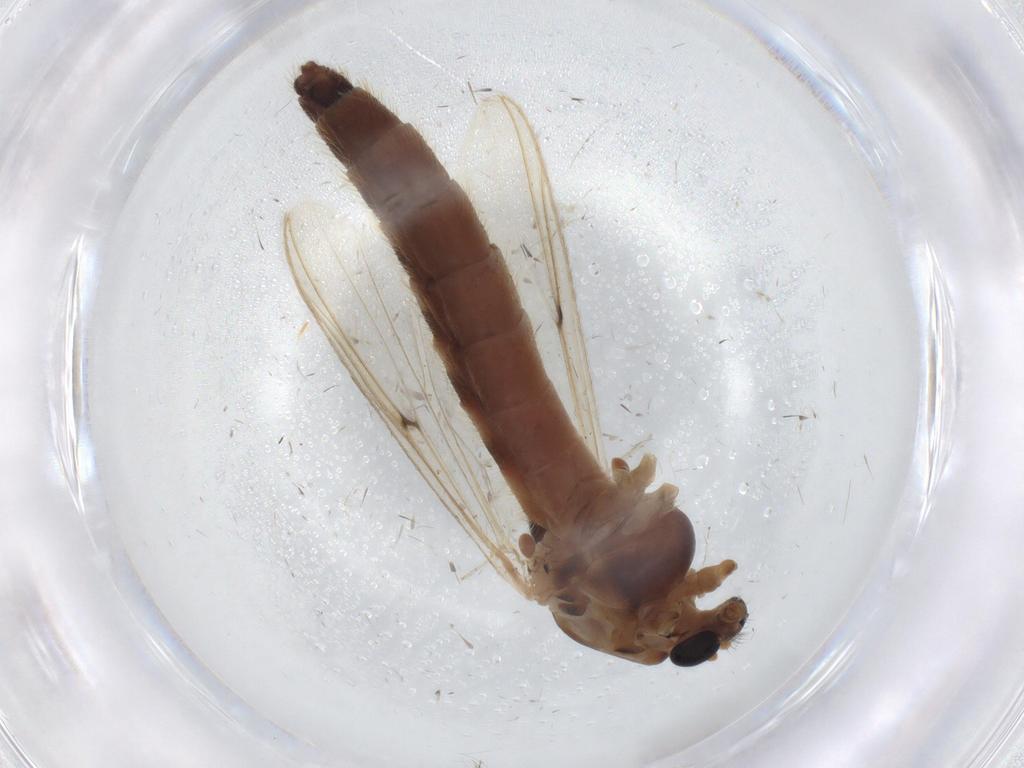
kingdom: Animalia
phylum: Arthropoda
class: Insecta
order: Diptera
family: Chironomidae
